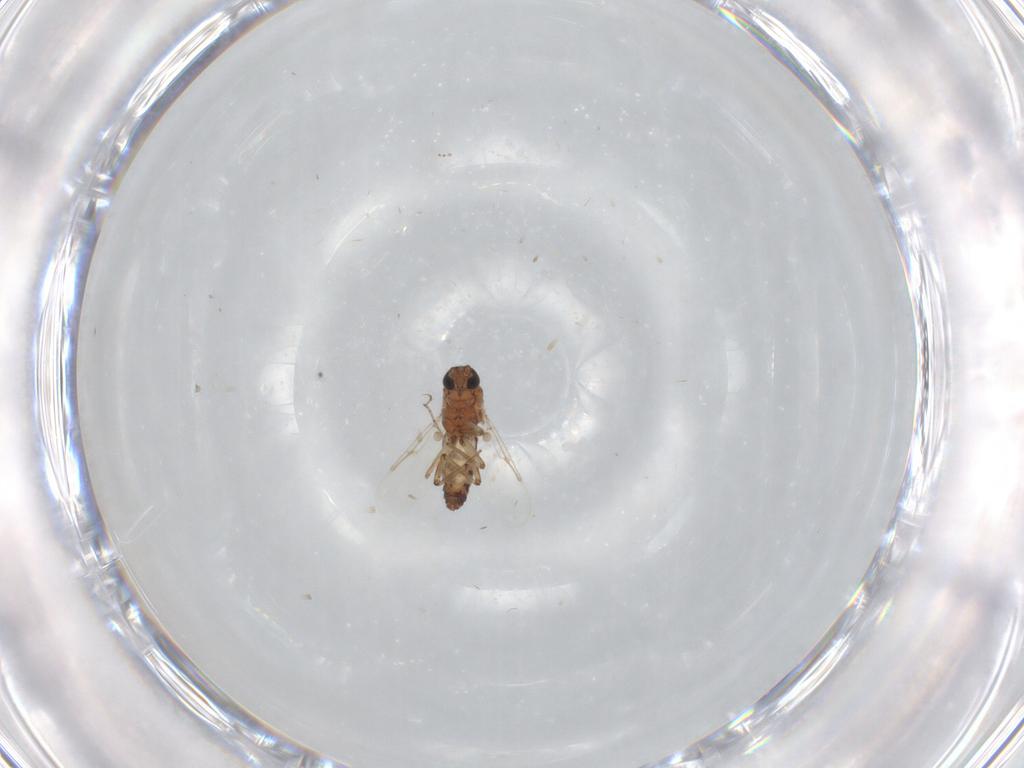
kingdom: Animalia
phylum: Arthropoda
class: Insecta
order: Diptera
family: Cecidomyiidae
